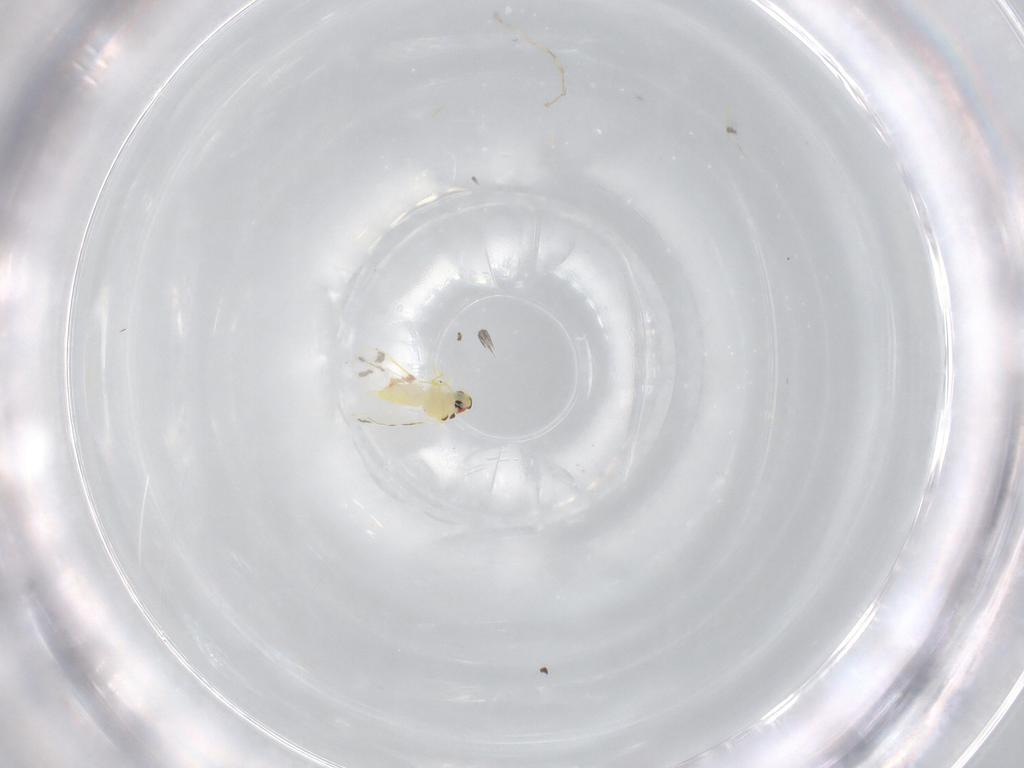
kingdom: Animalia
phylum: Arthropoda
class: Insecta
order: Hemiptera
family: Aleyrodidae
